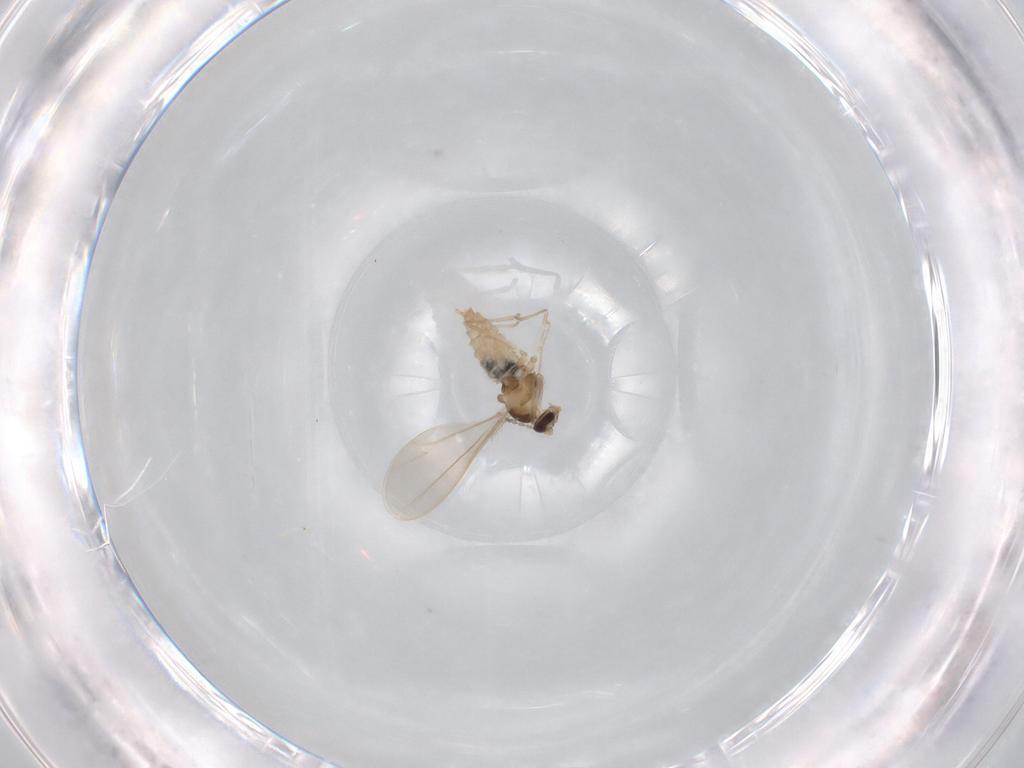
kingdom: Animalia
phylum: Arthropoda
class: Insecta
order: Diptera
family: Cecidomyiidae
